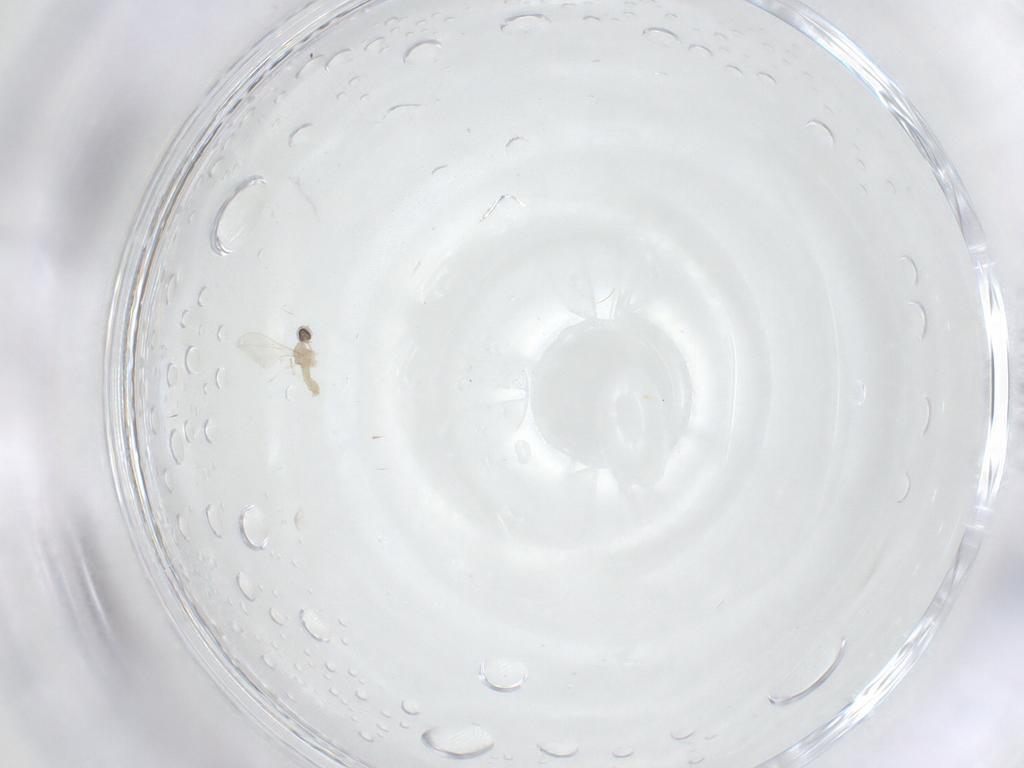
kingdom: Animalia
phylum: Arthropoda
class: Insecta
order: Diptera
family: Cecidomyiidae
